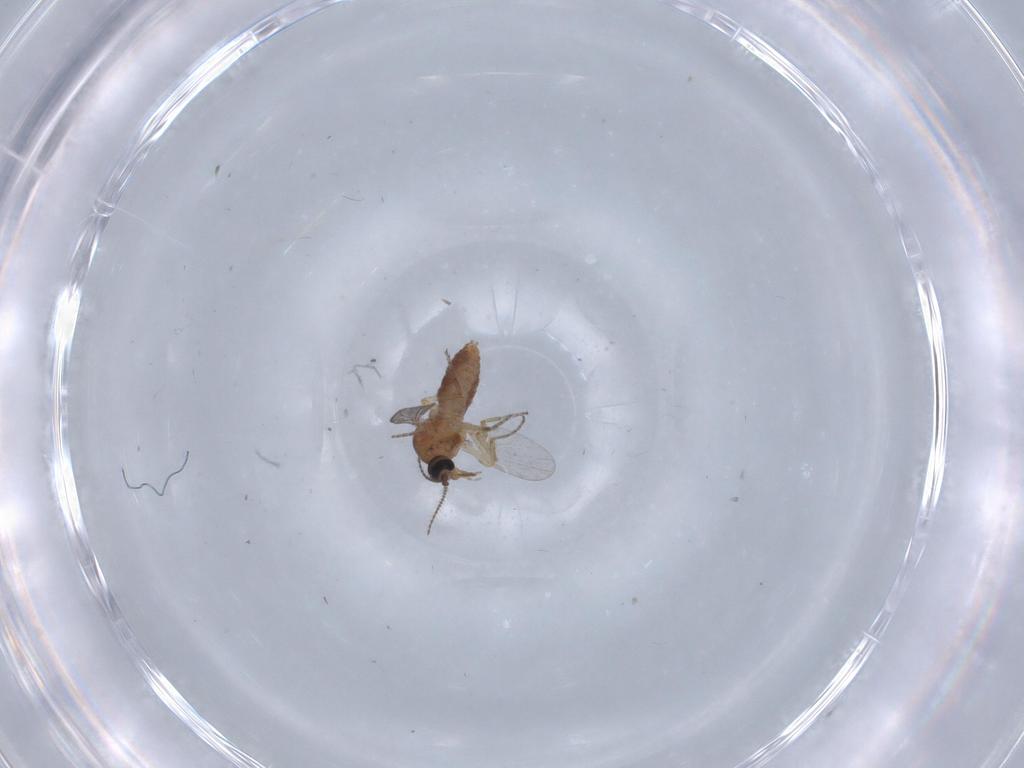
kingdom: Animalia
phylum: Arthropoda
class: Insecta
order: Diptera
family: Ceratopogonidae
